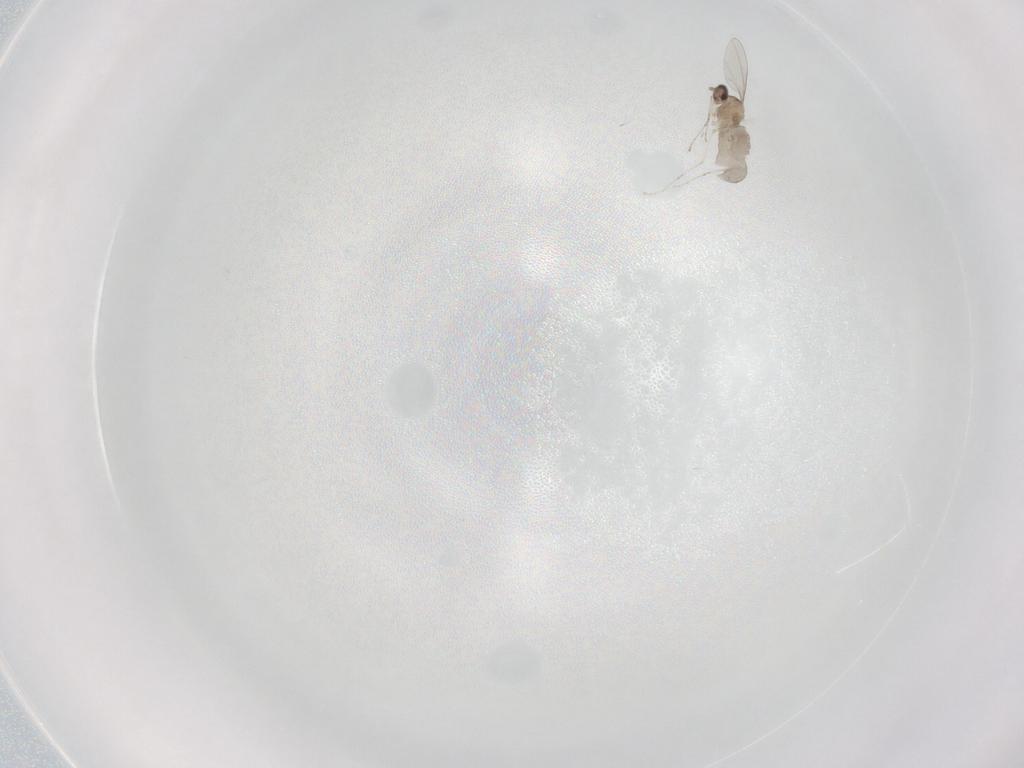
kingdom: Animalia
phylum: Arthropoda
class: Insecta
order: Diptera
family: Cecidomyiidae
